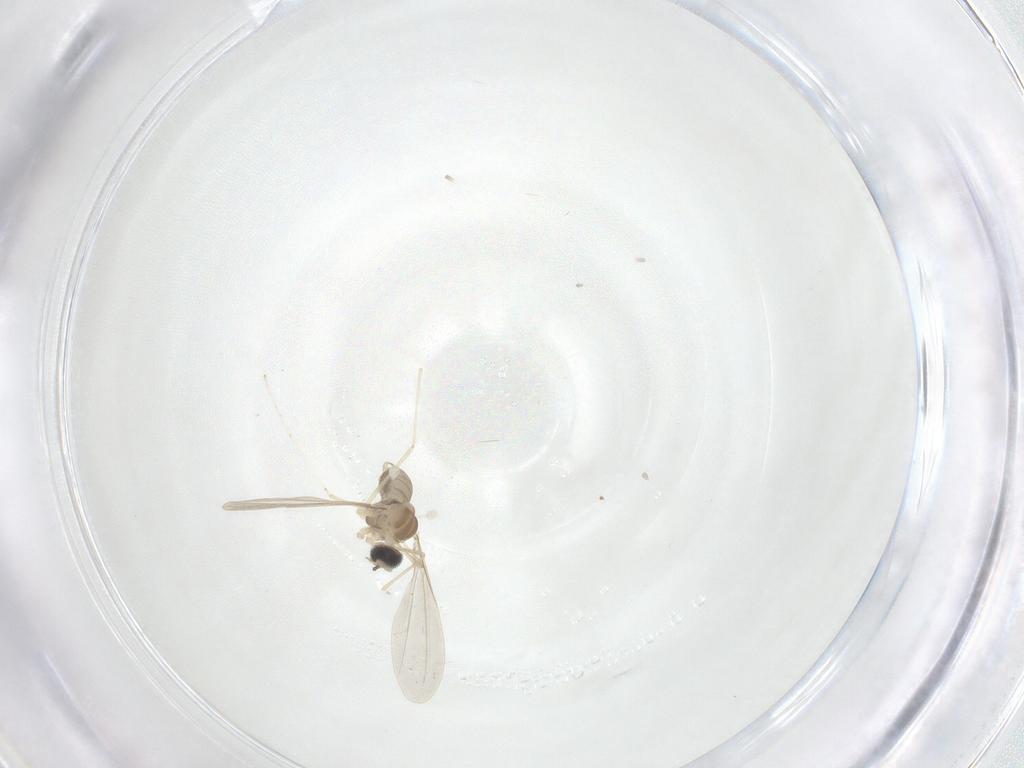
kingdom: Animalia
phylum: Arthropoda
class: Insecta
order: Diptera
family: Cecidomyiidae
